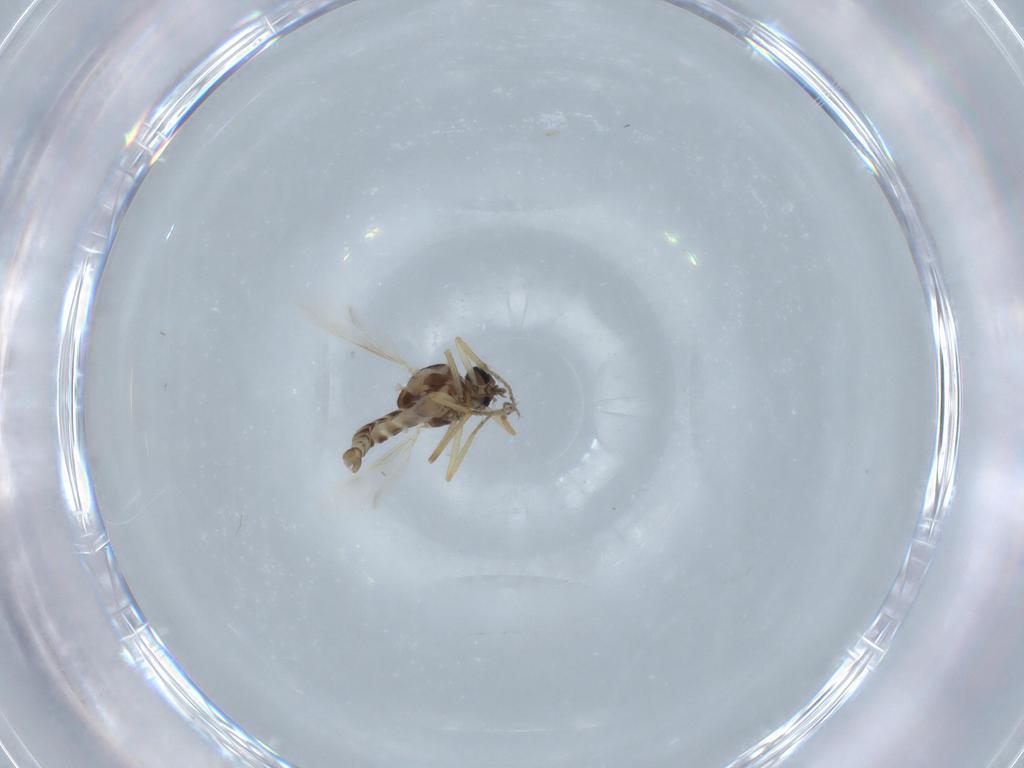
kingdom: Animalia
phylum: Arthropoda
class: Insecta
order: Diptera
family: Ceratopogonidae
